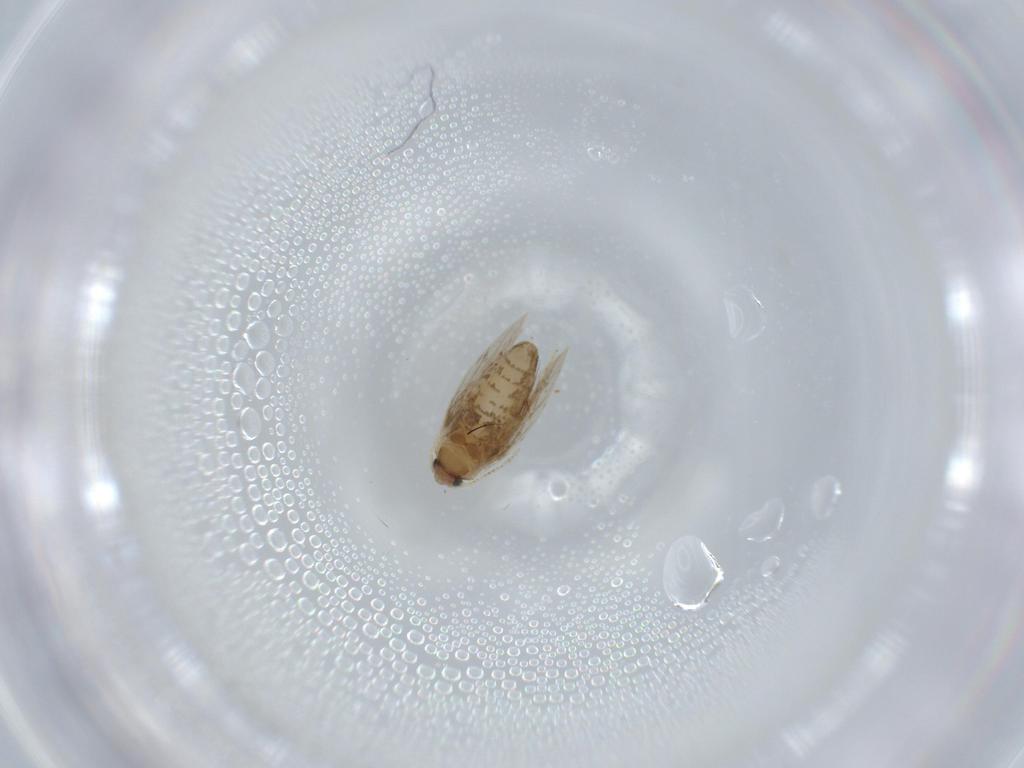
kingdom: Animalia
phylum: Arthropoda
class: Insecta
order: Lepidoptera
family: Nepticulidae
